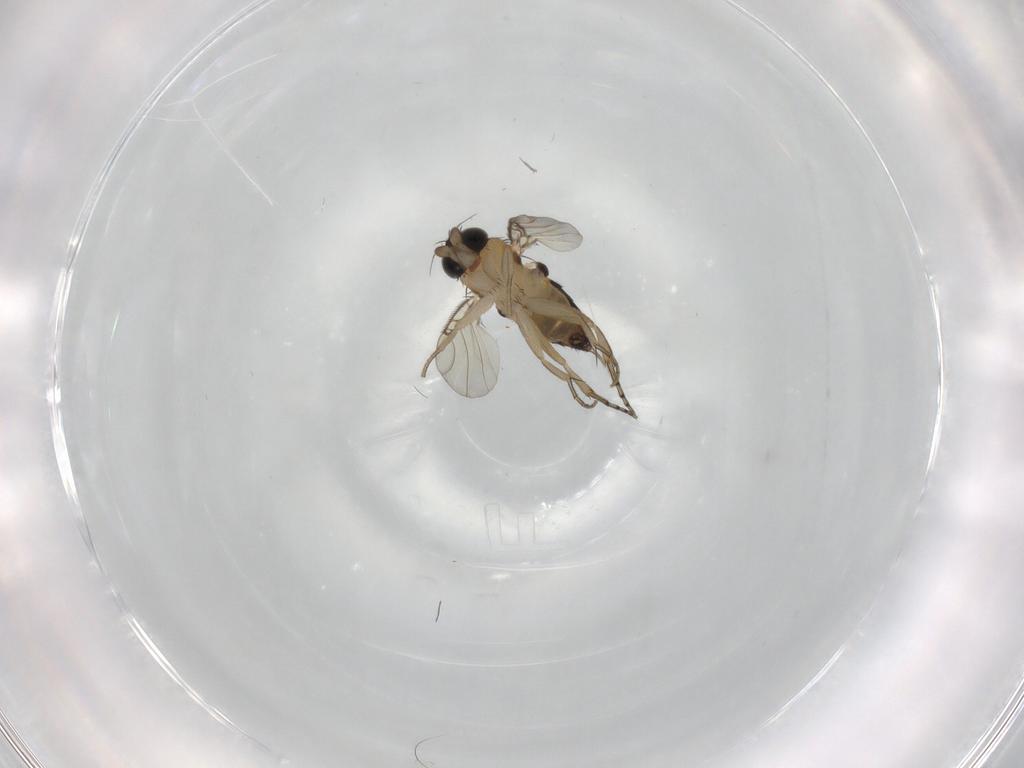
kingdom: Animalia
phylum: Arthropoda
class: Insecta
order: Diptera
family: Phoridae
